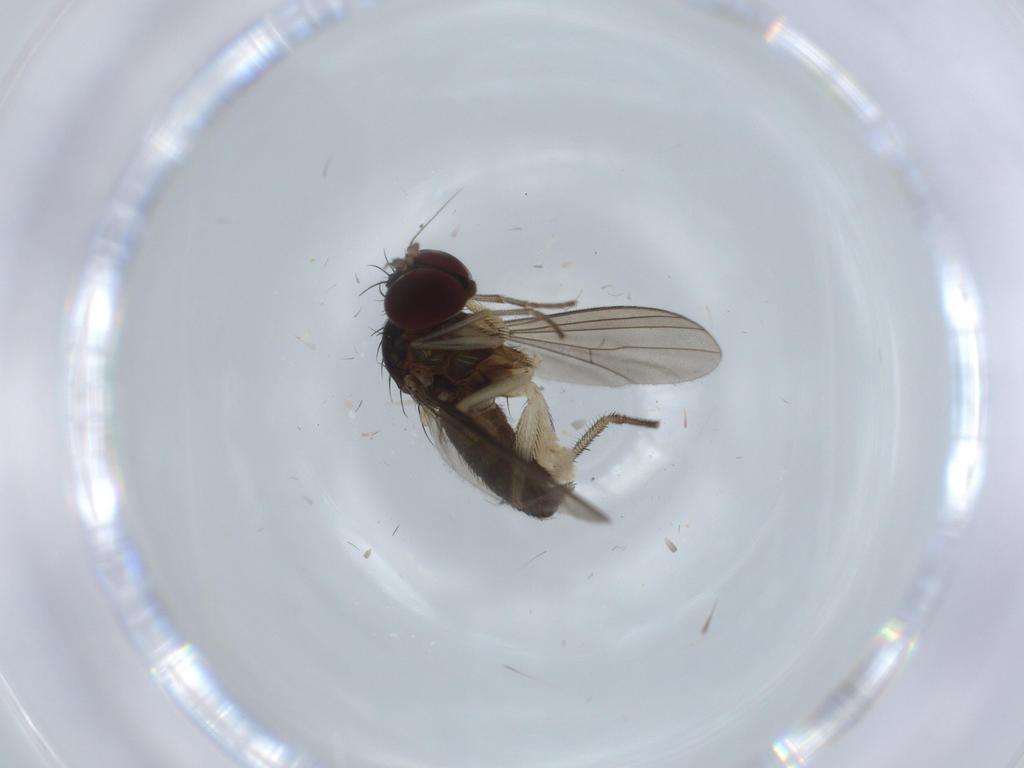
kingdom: Animalia
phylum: Arthropoda
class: Insecta
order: Diptera
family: Dolichopodidae
